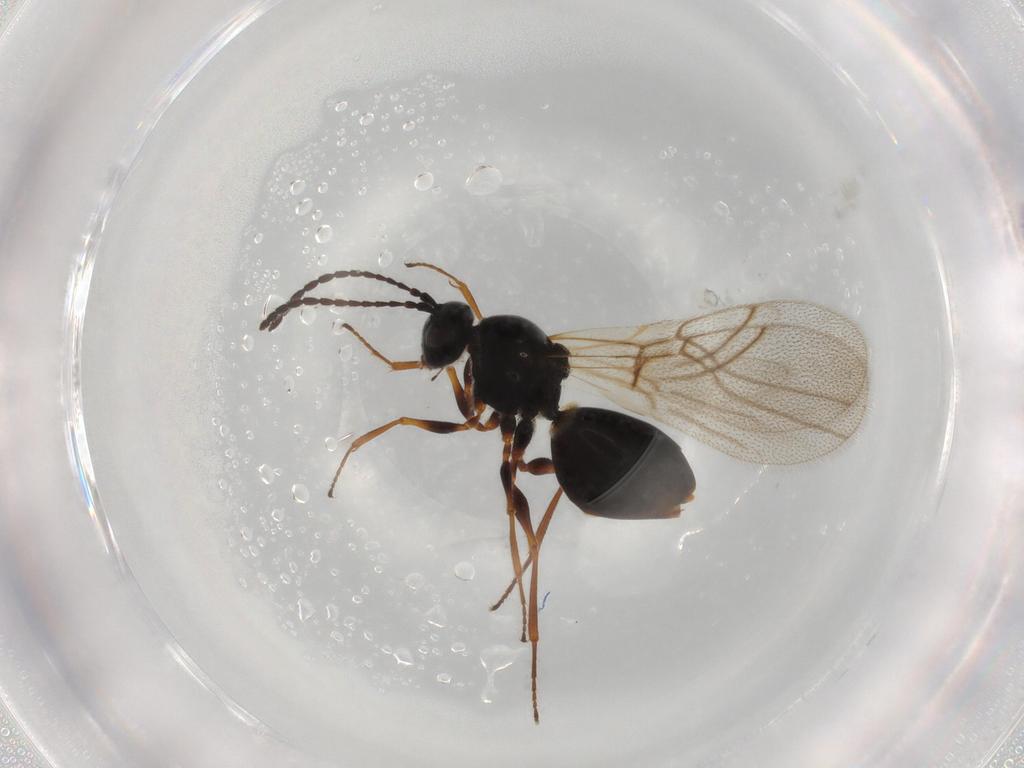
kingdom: Animalia
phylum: Arthropoda
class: Insecta
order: Hymenoptera
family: Figitidae
